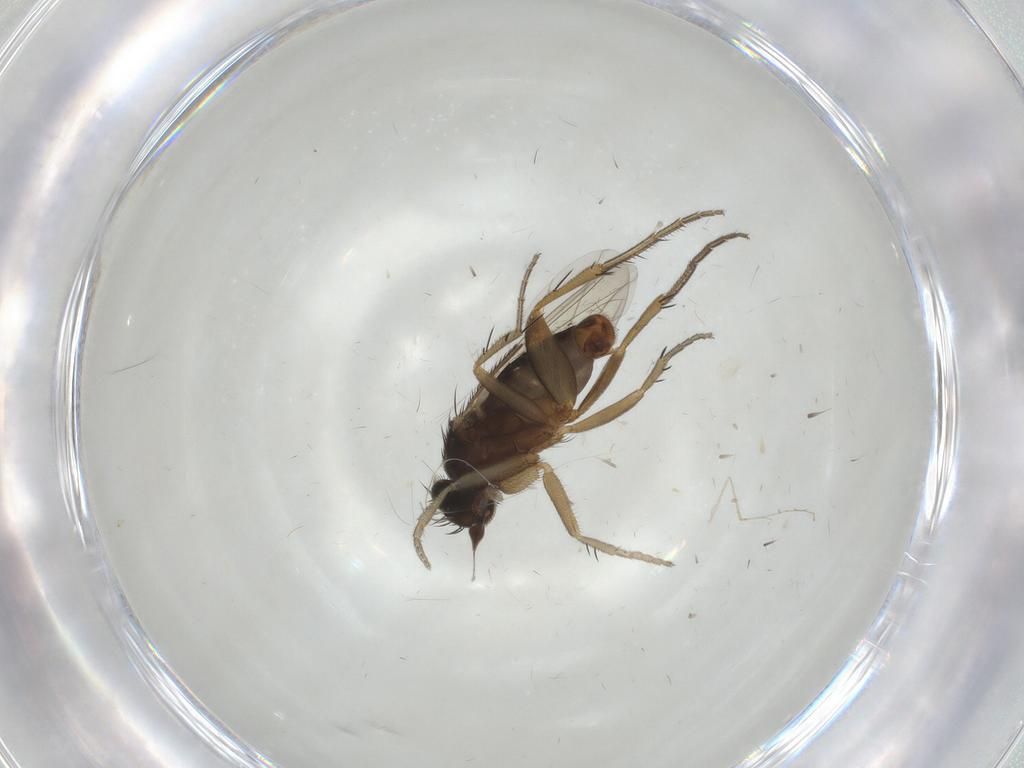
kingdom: Animalia
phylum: Arthropoda
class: Insecta
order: Diptera
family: Phoridae
